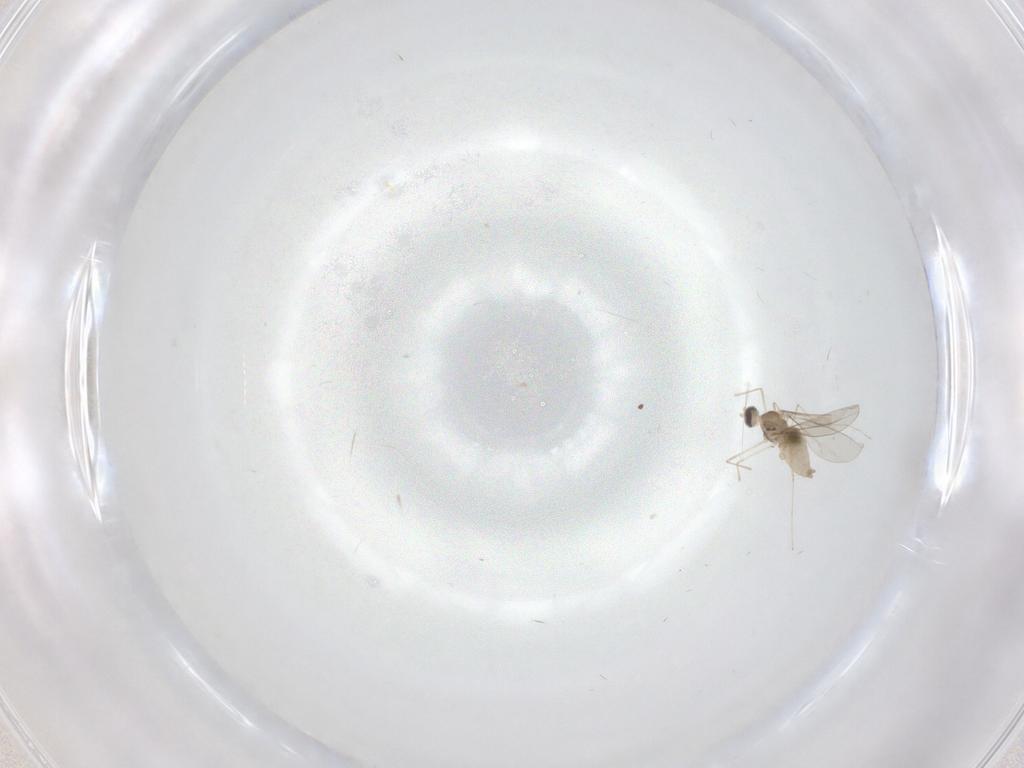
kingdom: Animalia
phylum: Arthropoda
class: Insecta
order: Diptera
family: Cecidomyiidae
